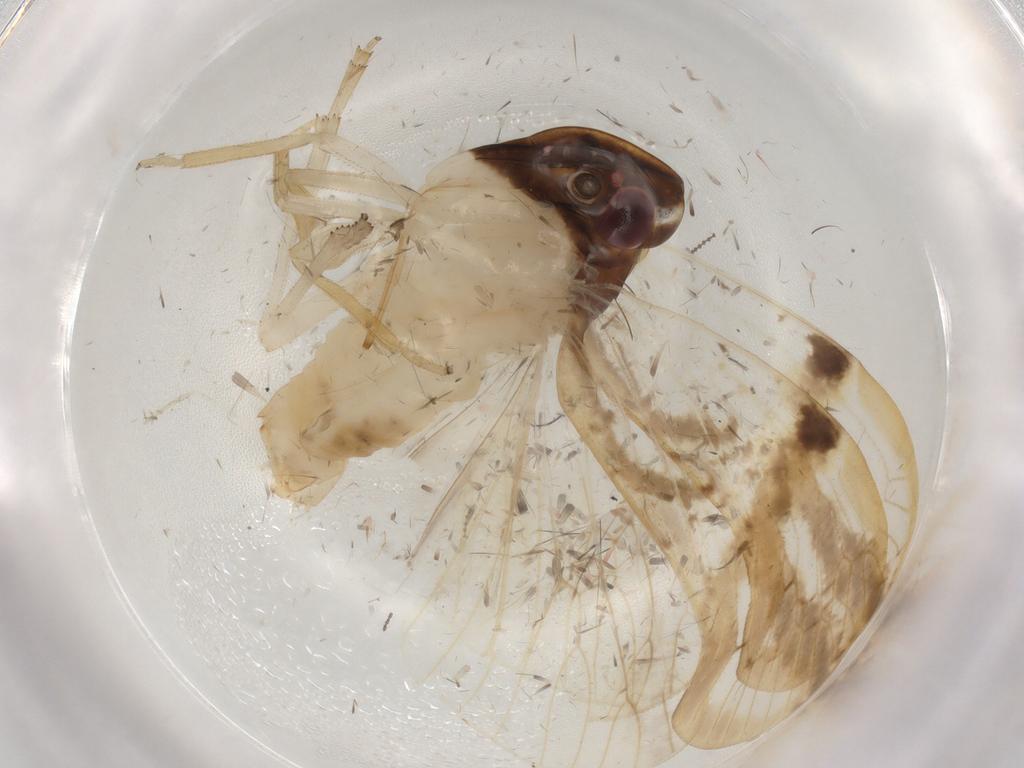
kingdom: Animalia
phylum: Arthropoda
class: Insecta
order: Hemiptera
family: Cixiidae
